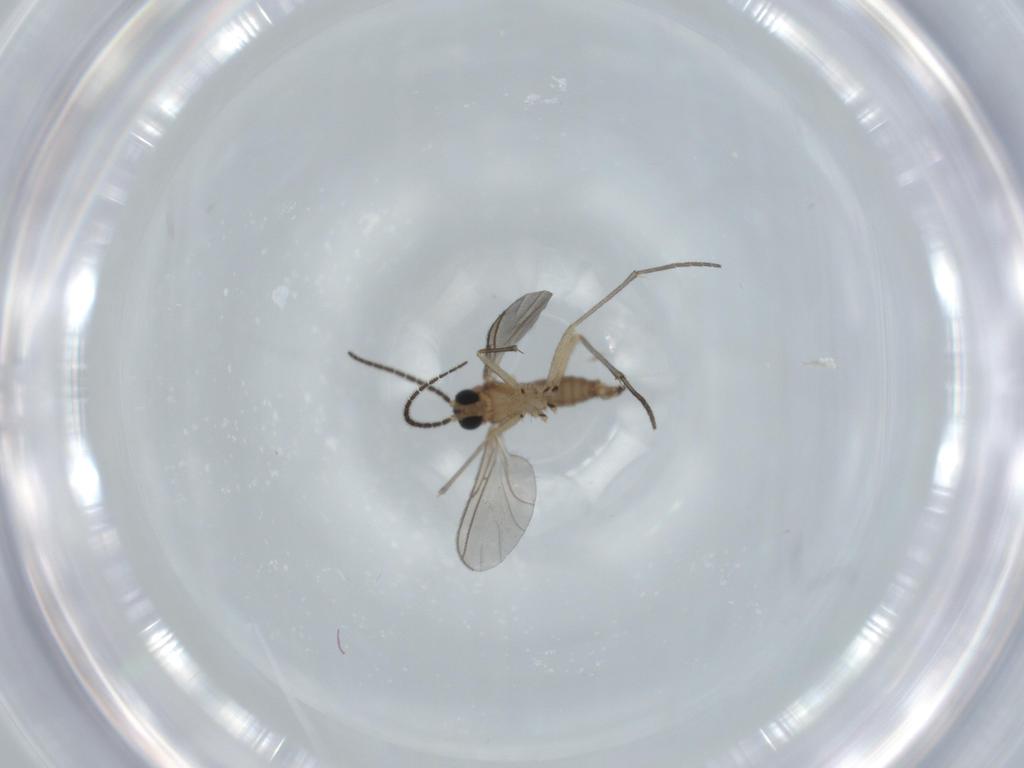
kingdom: Animalia
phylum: Arthropoda
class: Insecta
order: Diptera
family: Sciaridae
